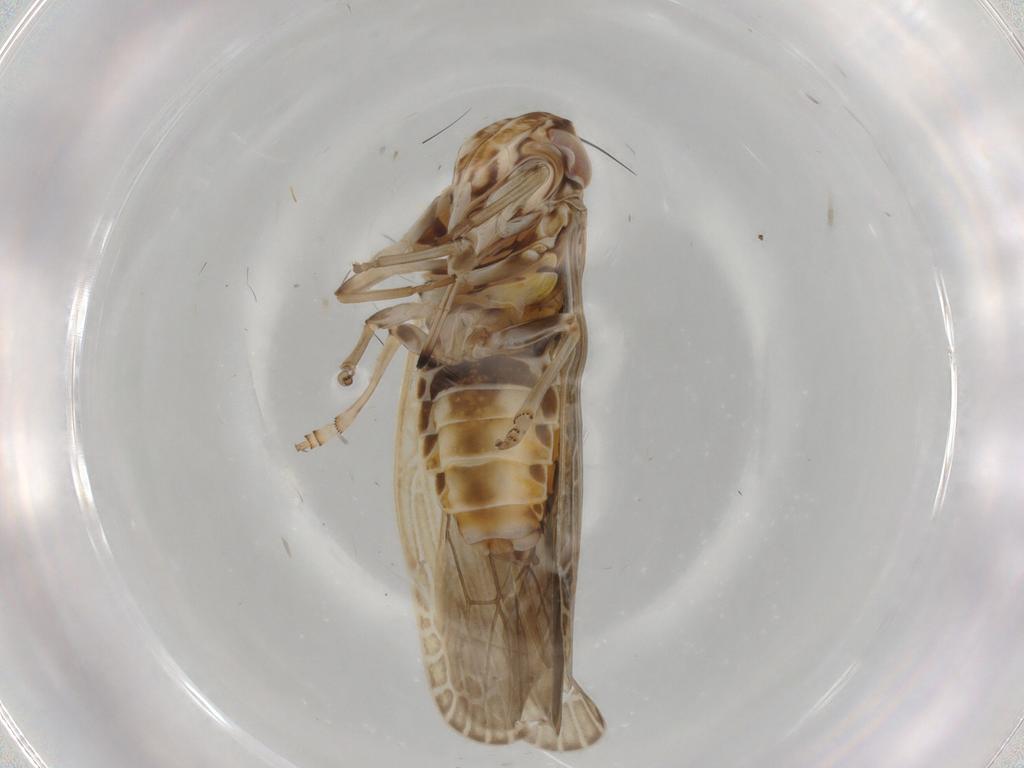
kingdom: Animalia
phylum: Arthropoda
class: Insecta
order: Hemiptera
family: Achilidae
